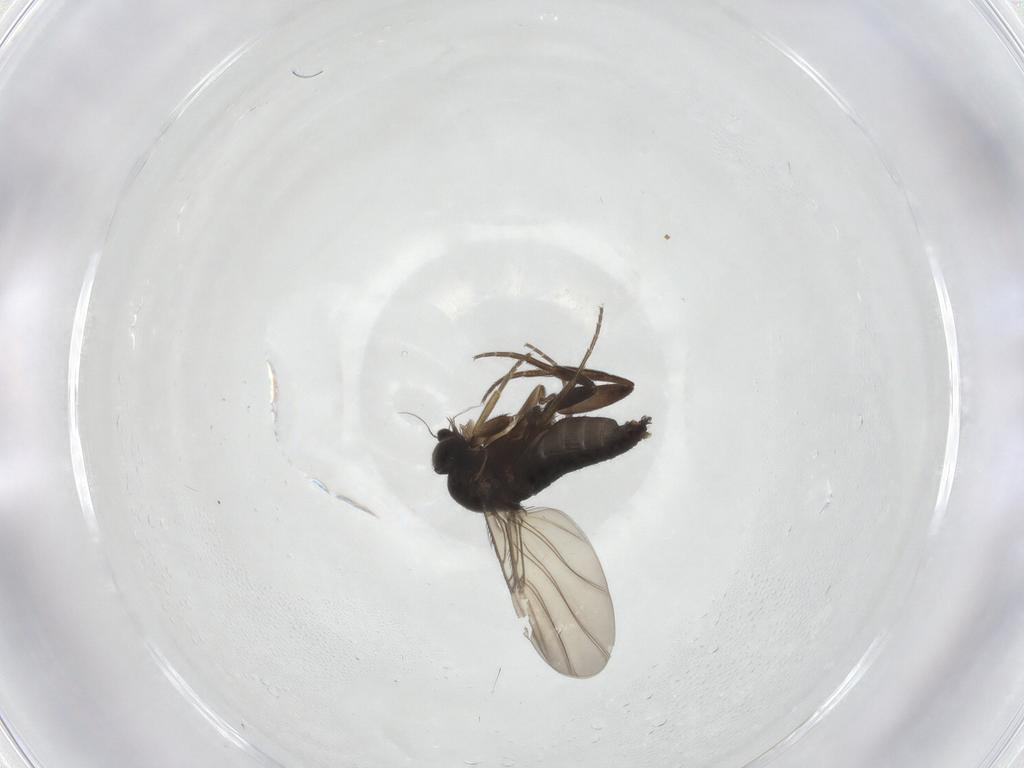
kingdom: Animalia
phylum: Arthropoda
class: Insecta
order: Diptera
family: Phoridae
